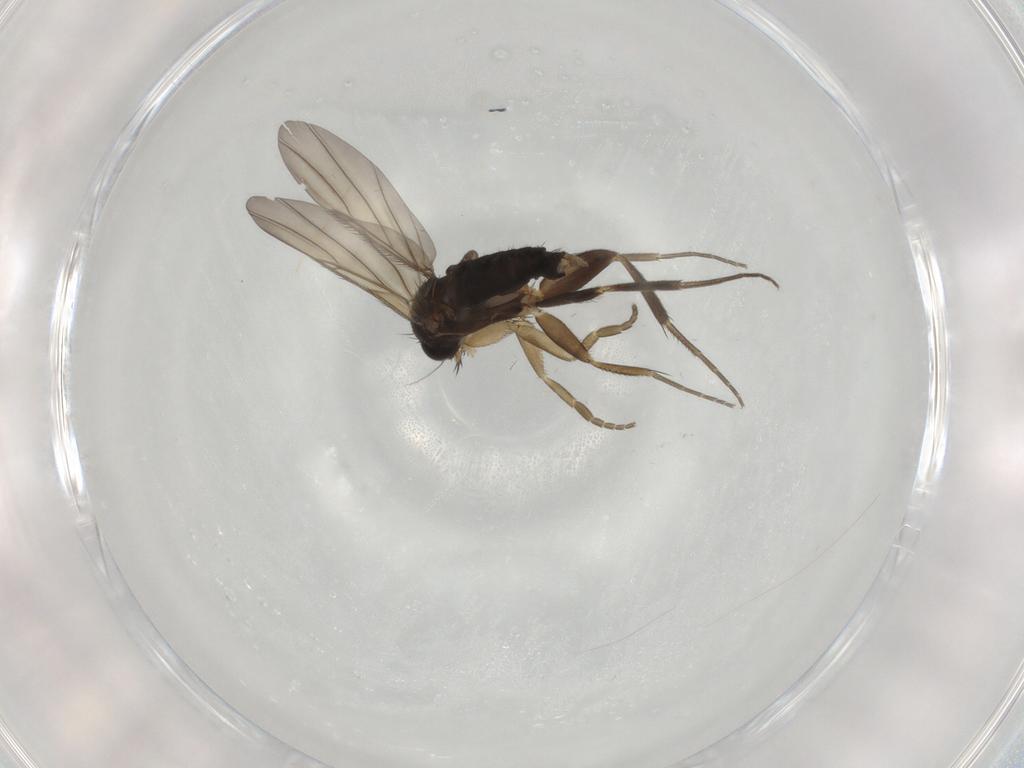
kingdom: Animalia
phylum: Arthropoda
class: Insecta
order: Diptera
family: Phoridae
